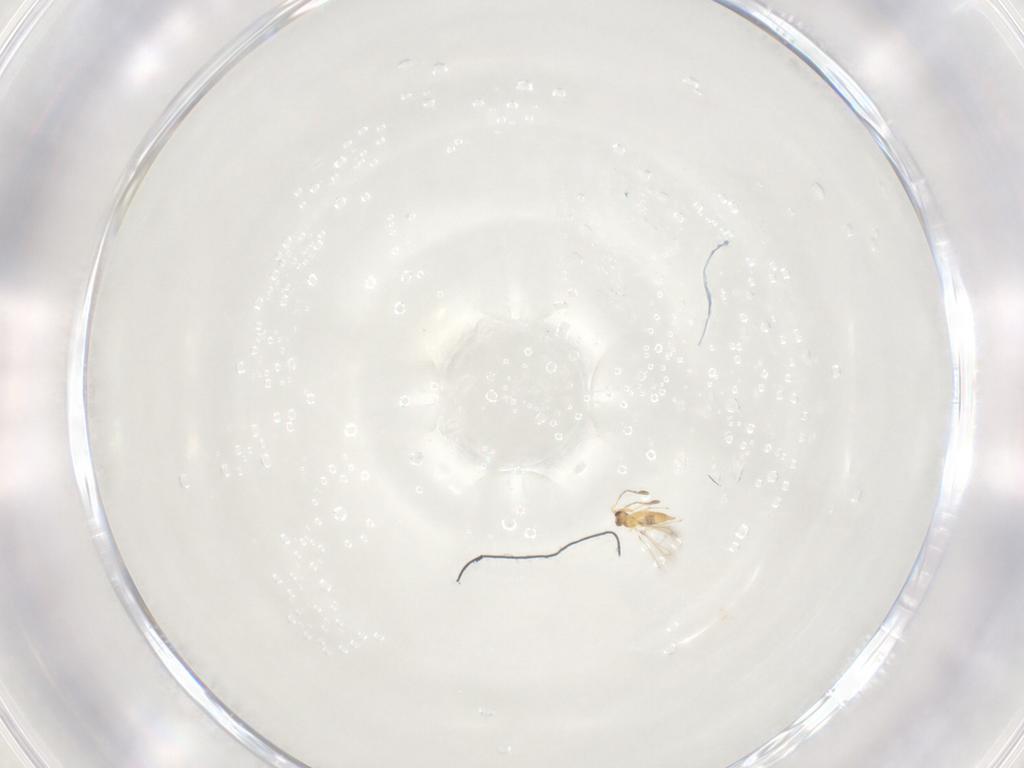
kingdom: Animalia
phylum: Arthropoda
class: Insecta
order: Hymenoptera
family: Mymaridae
